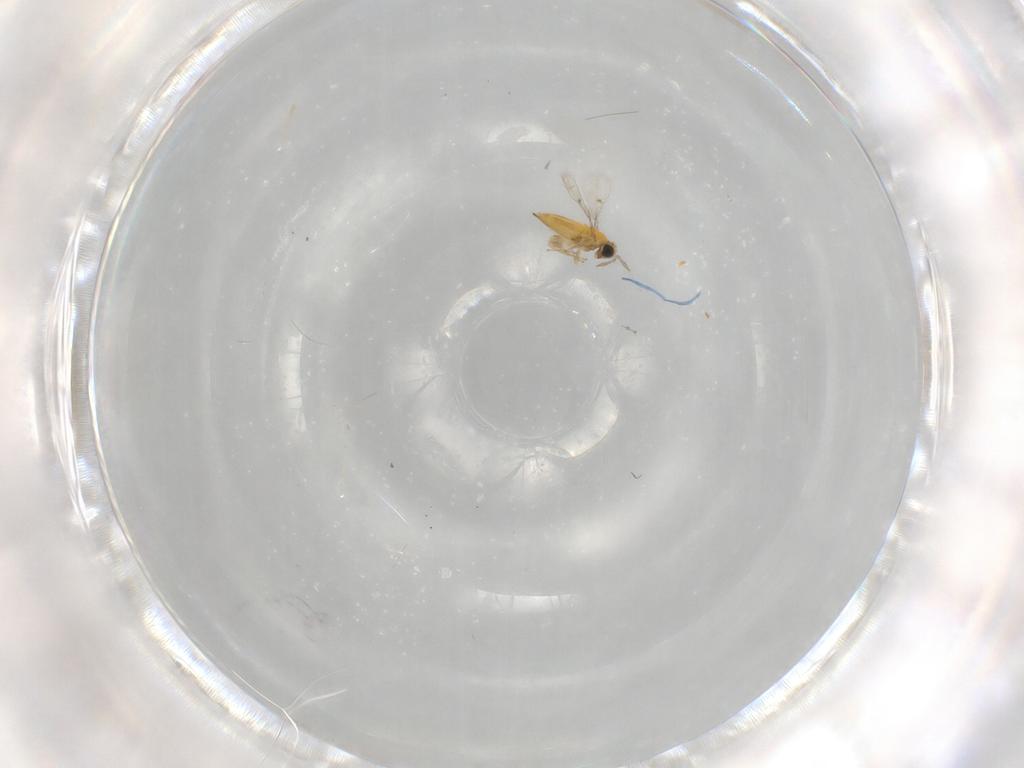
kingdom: Animalia
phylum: Arthropoda
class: Insecta
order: Hymenoptera
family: Trichogrammatidae
